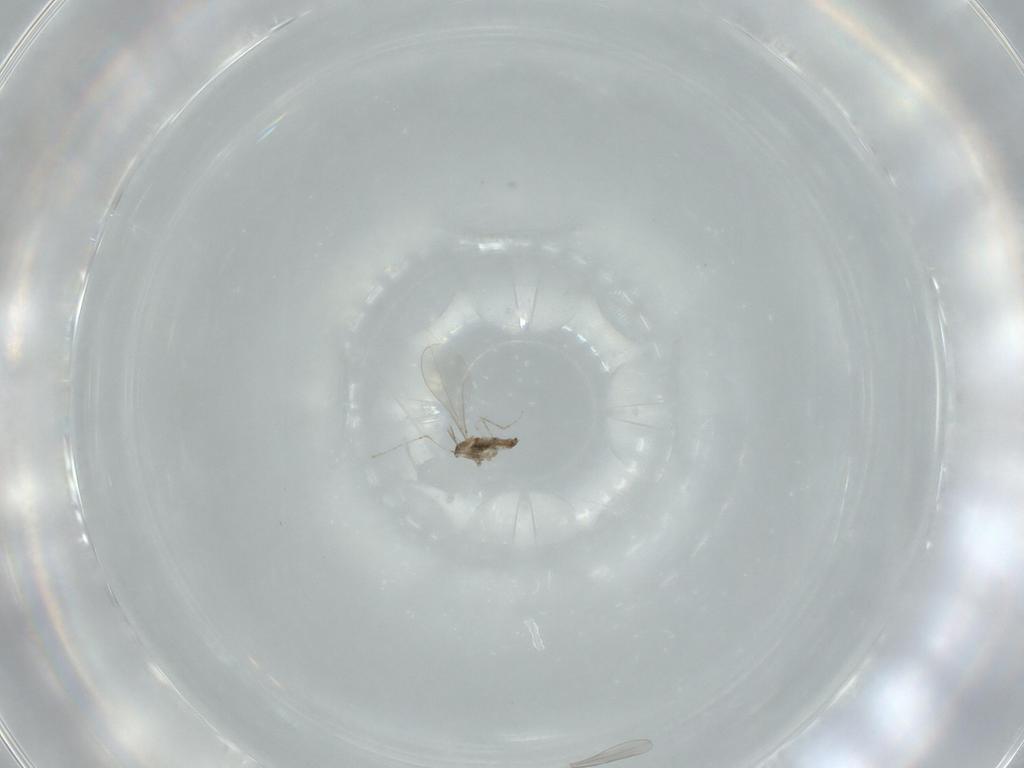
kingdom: Animalia
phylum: Arthropoda
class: Insecta
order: Diptera
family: Cecidomyiidae
